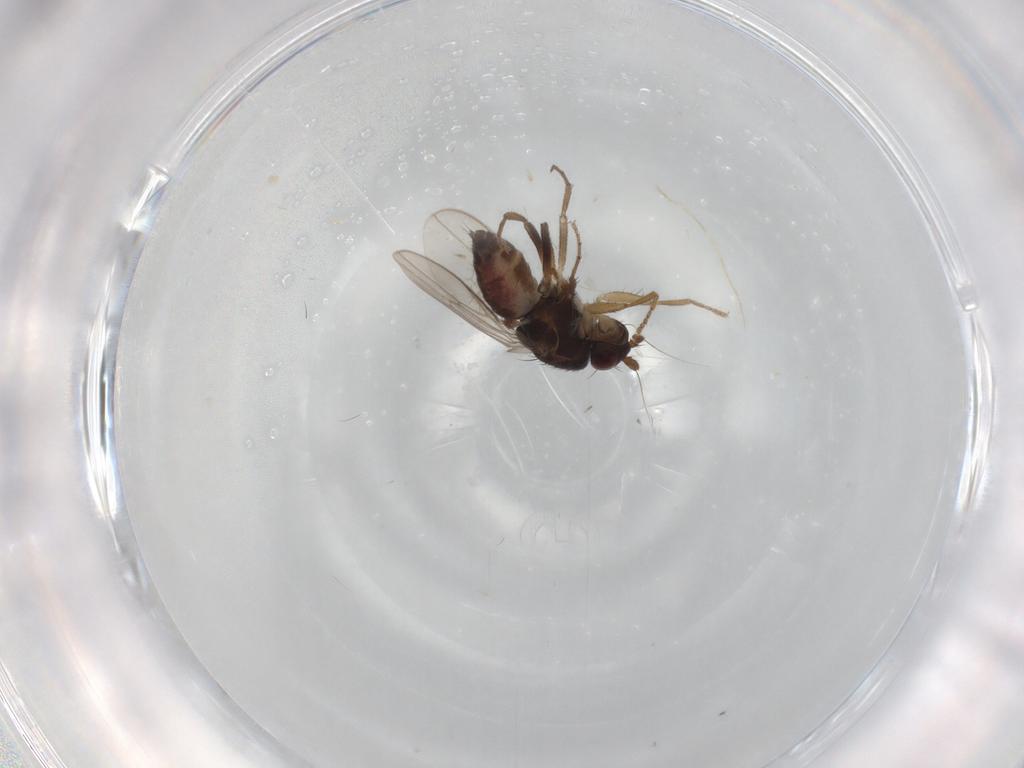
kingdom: Animalia
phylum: Arthropoda
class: Insecta
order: Diptera
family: Sphaeroceridae
